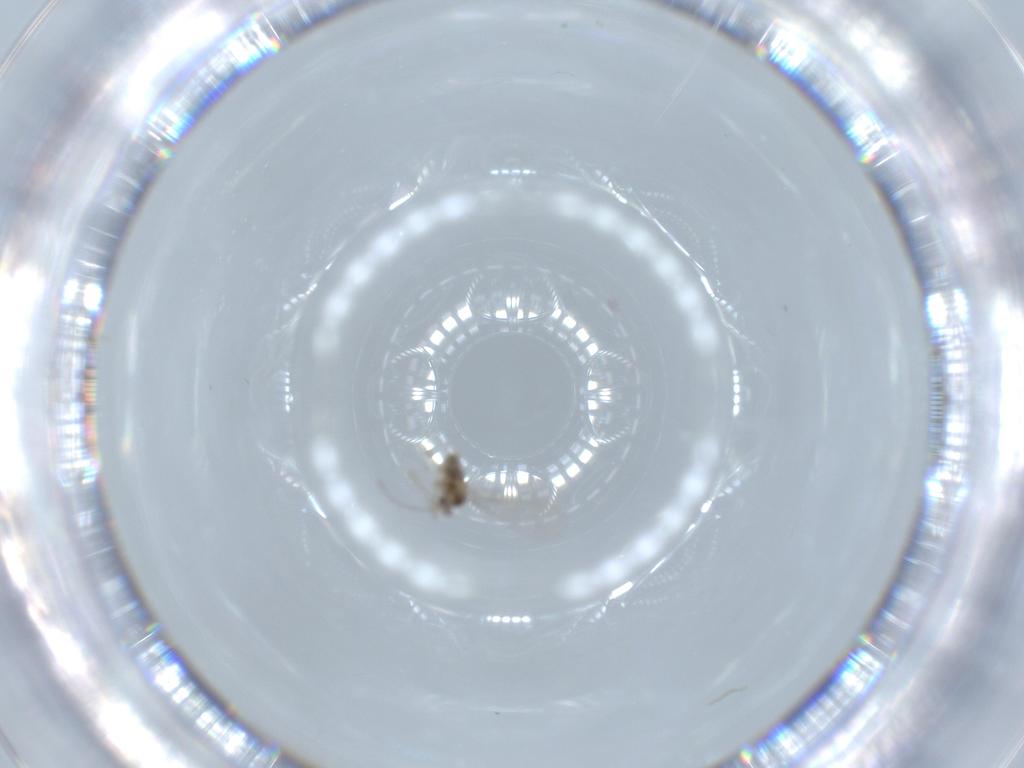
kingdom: Animalia
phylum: Arthropoda
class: Insecta
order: Diptera
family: Cecidomyiidae
